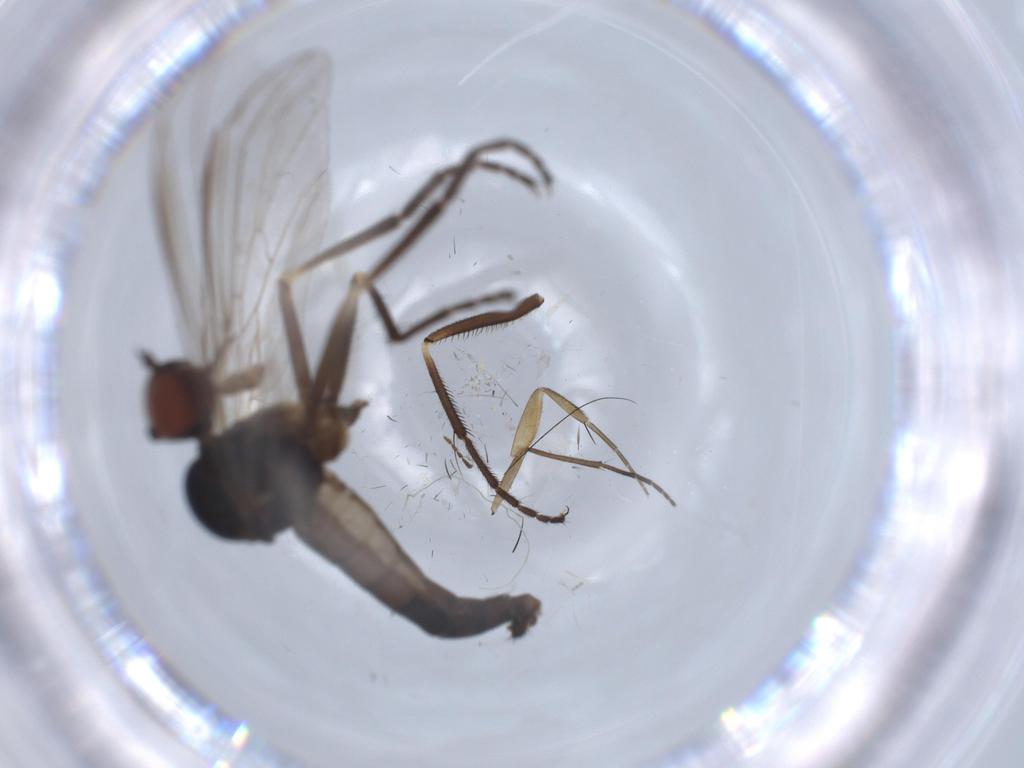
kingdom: Animalia
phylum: Arthropoda
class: Insecta
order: Diptera
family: Empididae
